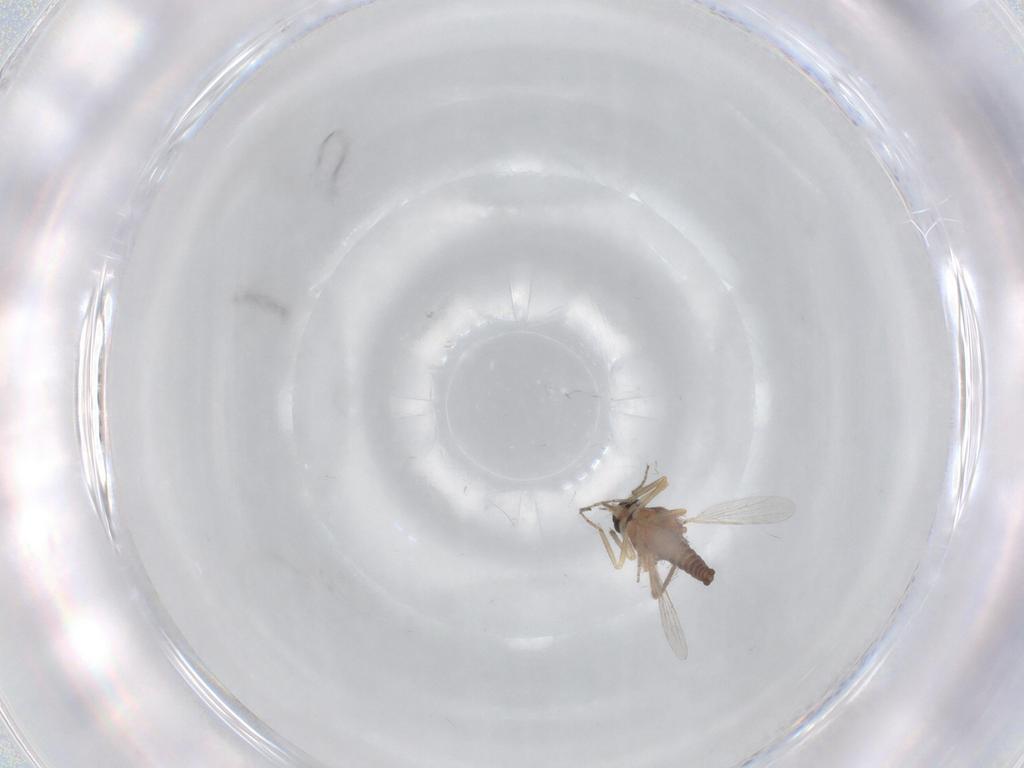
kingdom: Animalia
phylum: Arthropoda
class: Insecta
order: Diptera
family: Ceratopogonidae
